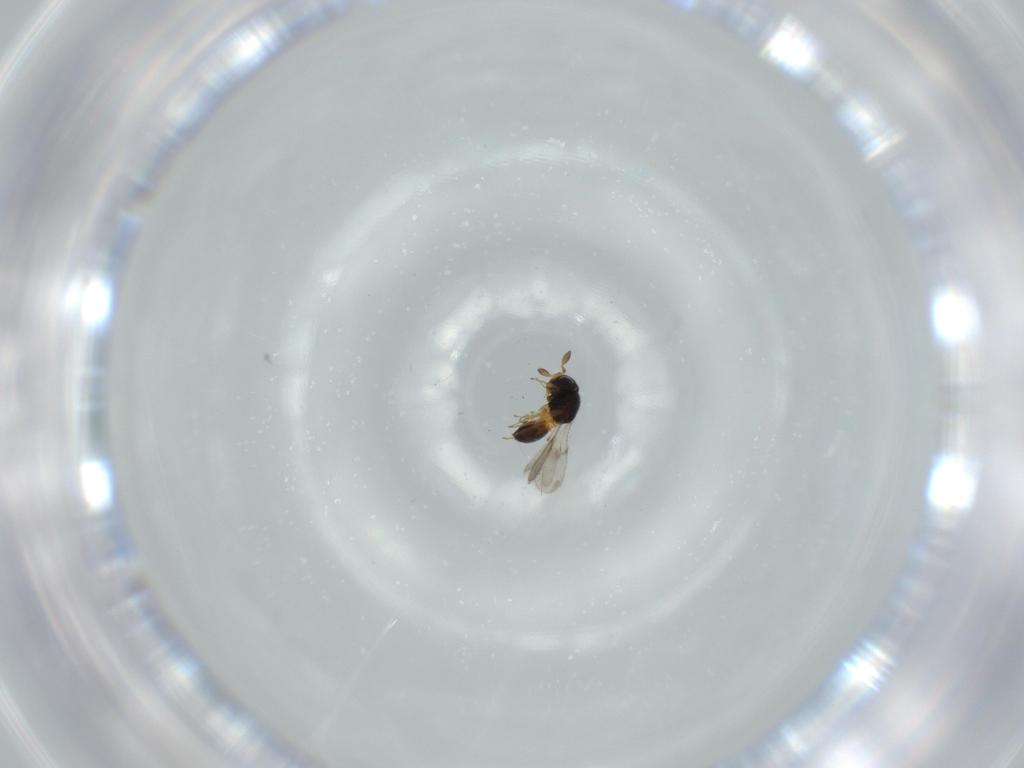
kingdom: Animalia
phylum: Arthropoda
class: Insecta
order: Hymenoptera
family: Scelionidae
